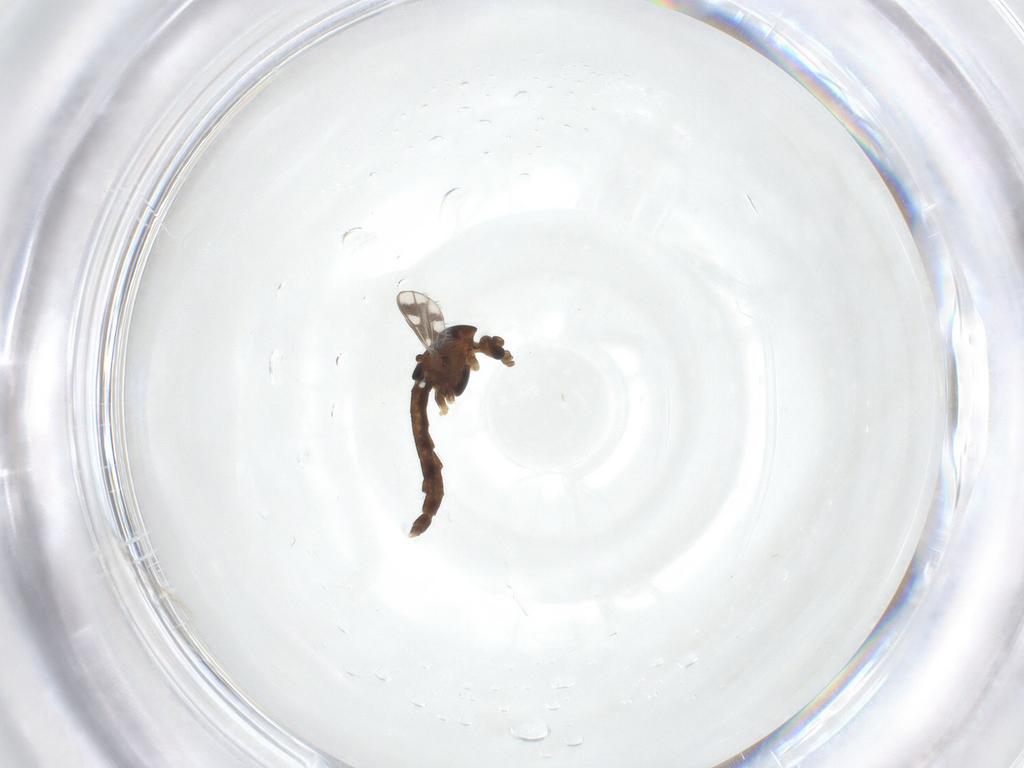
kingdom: Animalia
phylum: Arthropoda
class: Insecta
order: Diptera
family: Chironomidae
